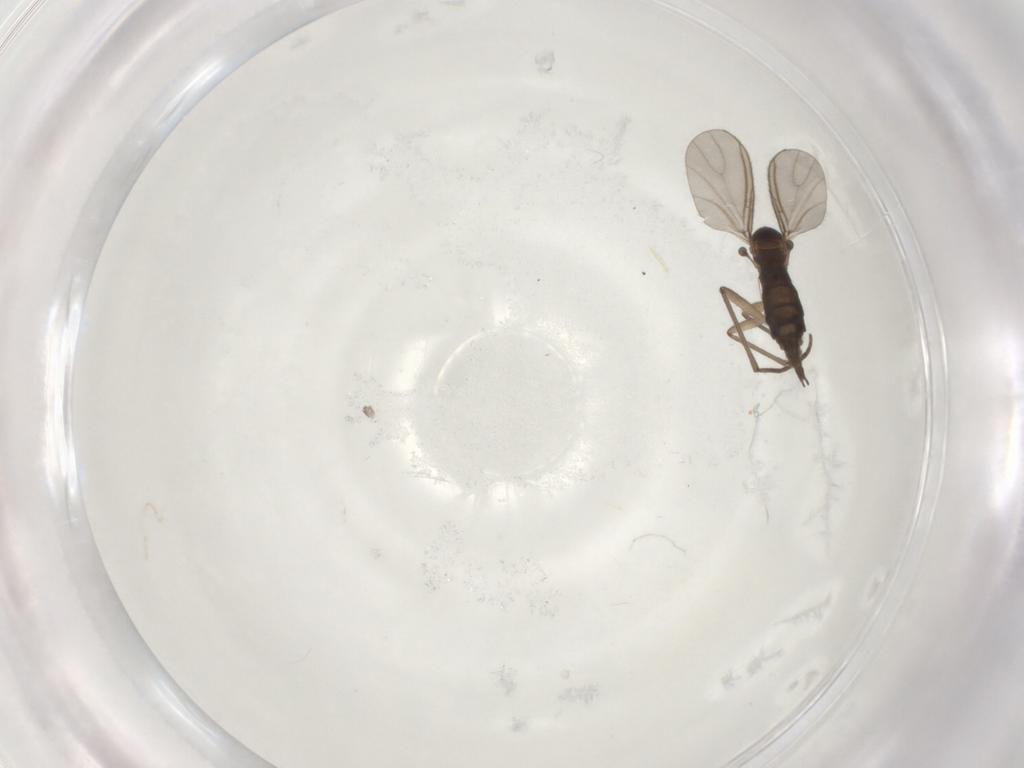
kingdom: Animalia
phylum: Arthropoda
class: Insecta
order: Diptera
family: Sciaridae
